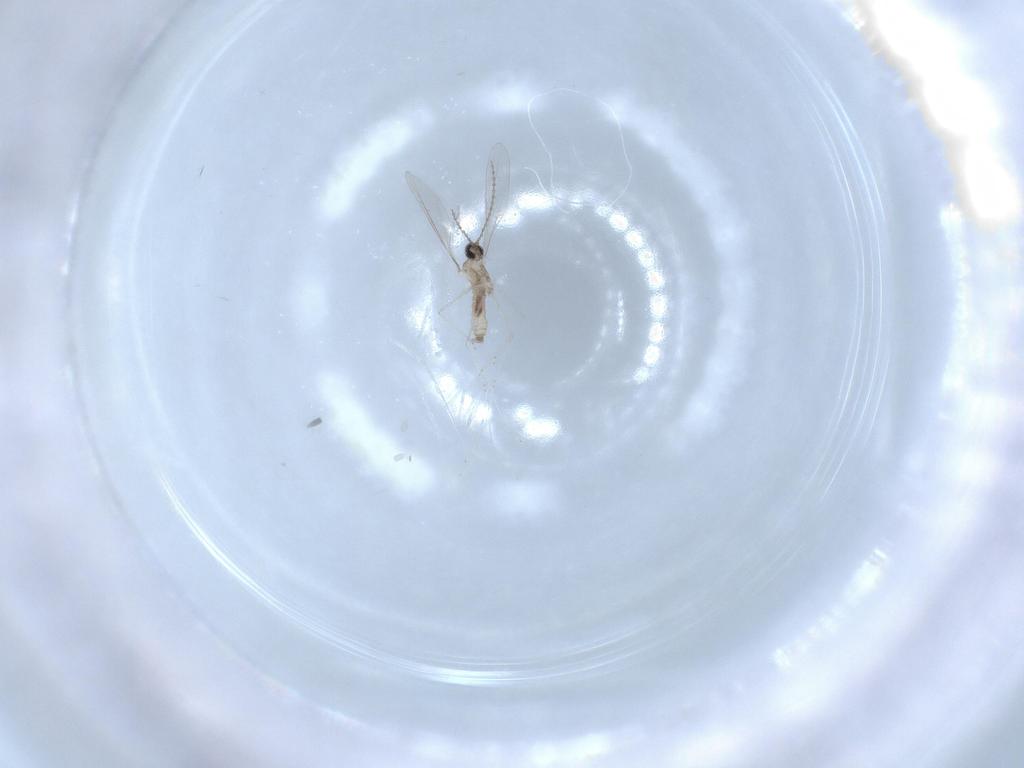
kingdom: Animalia
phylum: Arthropoda
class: Insecta
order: Diptera
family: Cecidomyiidae
